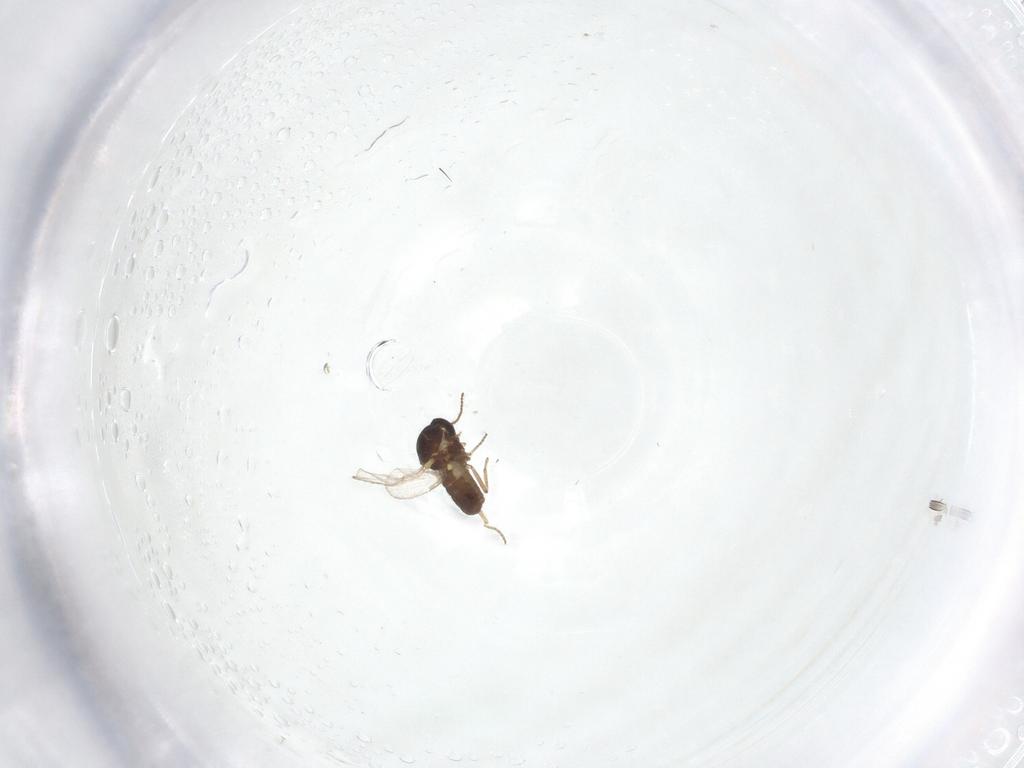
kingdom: Animalia
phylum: Arthropoda
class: Insecta
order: Diptera
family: Ceratopogonidae
